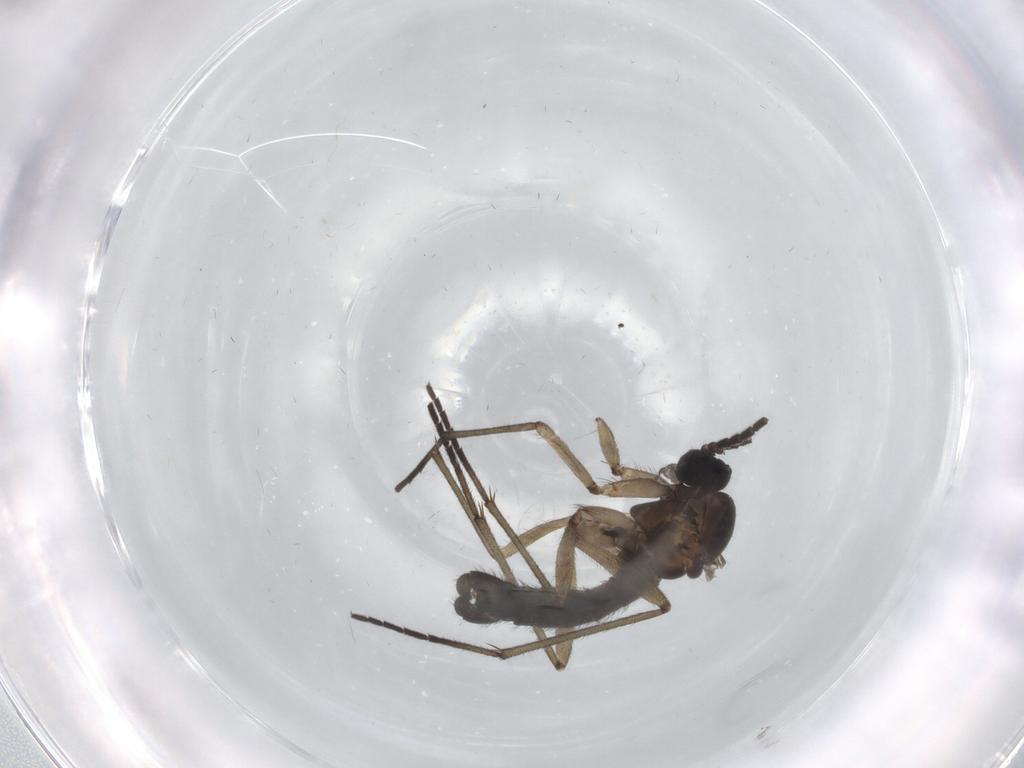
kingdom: Animalia
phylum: Arthropoda
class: Insecta
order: Diptera
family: Sciaridae
